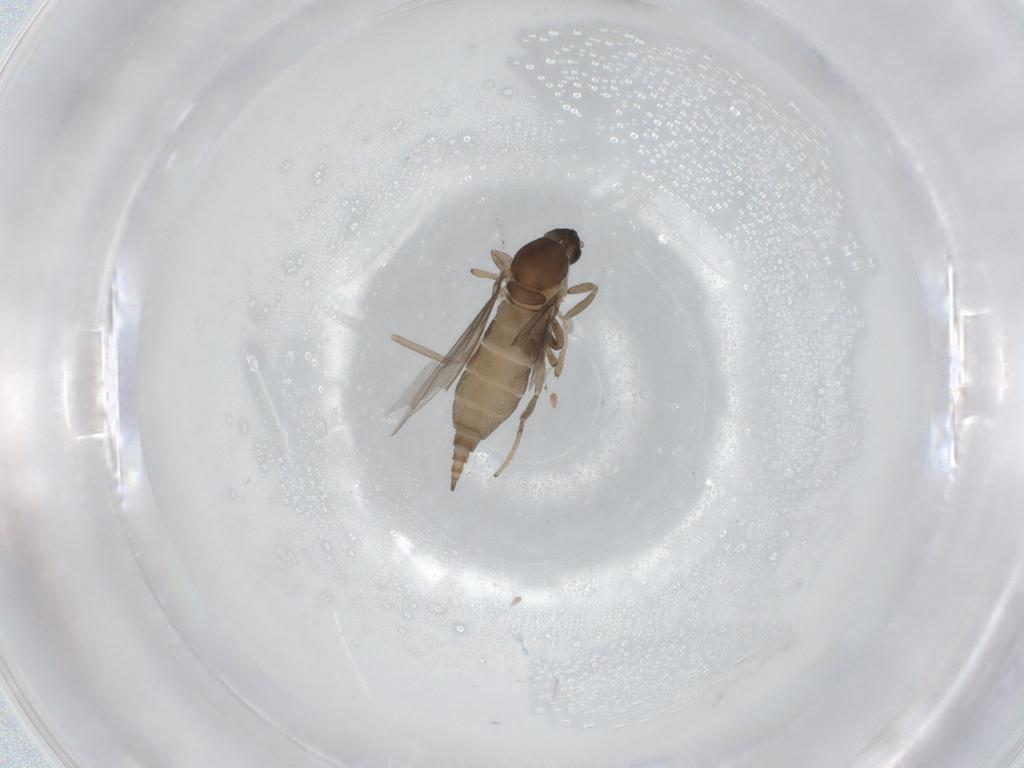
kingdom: Animalia
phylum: Arthropoda
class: Insecta
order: Diptera
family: Cecidomyiidae
